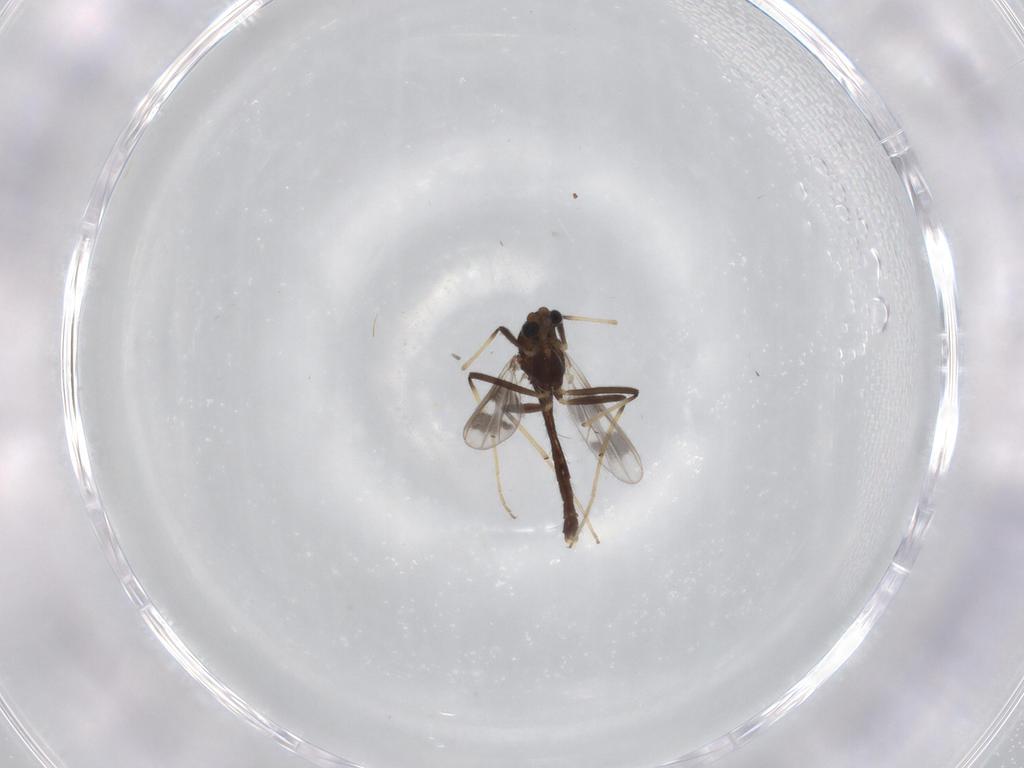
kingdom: Animalia
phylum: Arthropoda
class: Insecta
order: Diptera
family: Chironomidae
